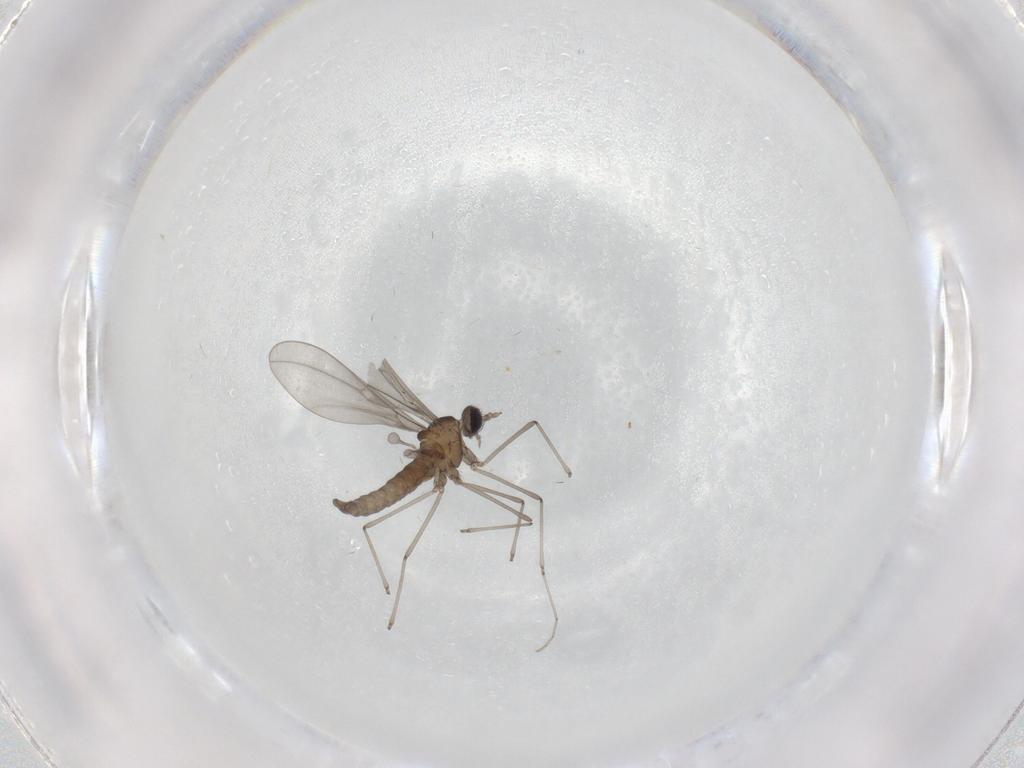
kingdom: Animalia
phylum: Arthropoda
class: Insecta
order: Diptera
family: Cecidomyiidae
